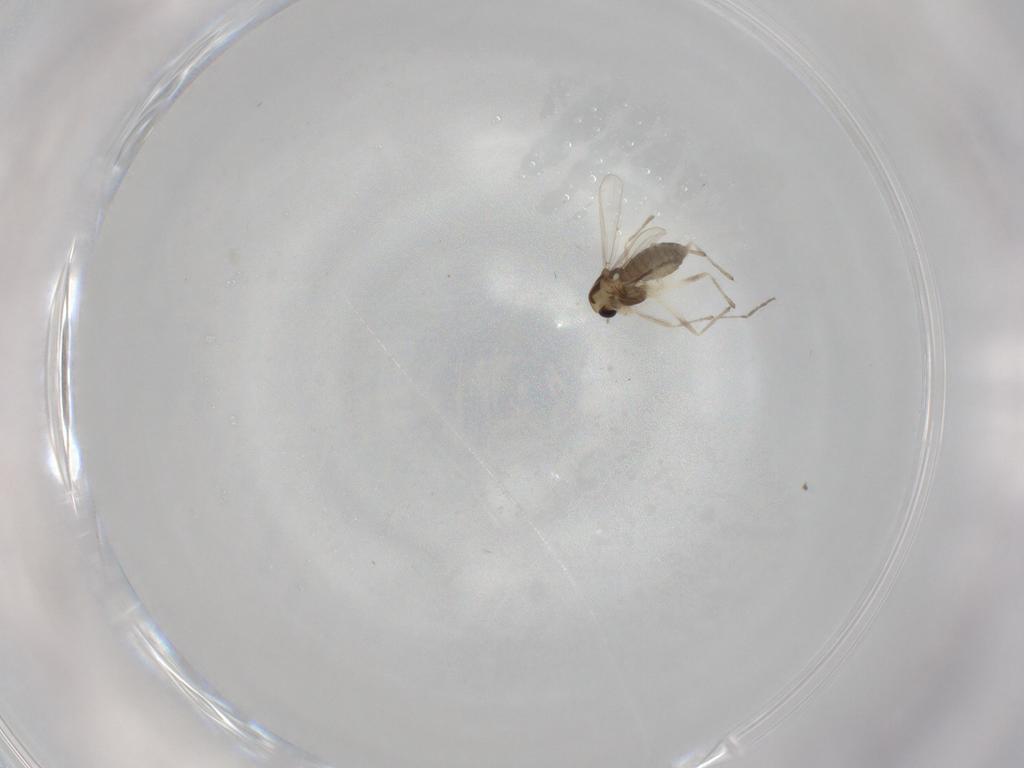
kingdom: Animalia
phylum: Arthropoda
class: Insecta
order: Diptera
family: Chironomidae
